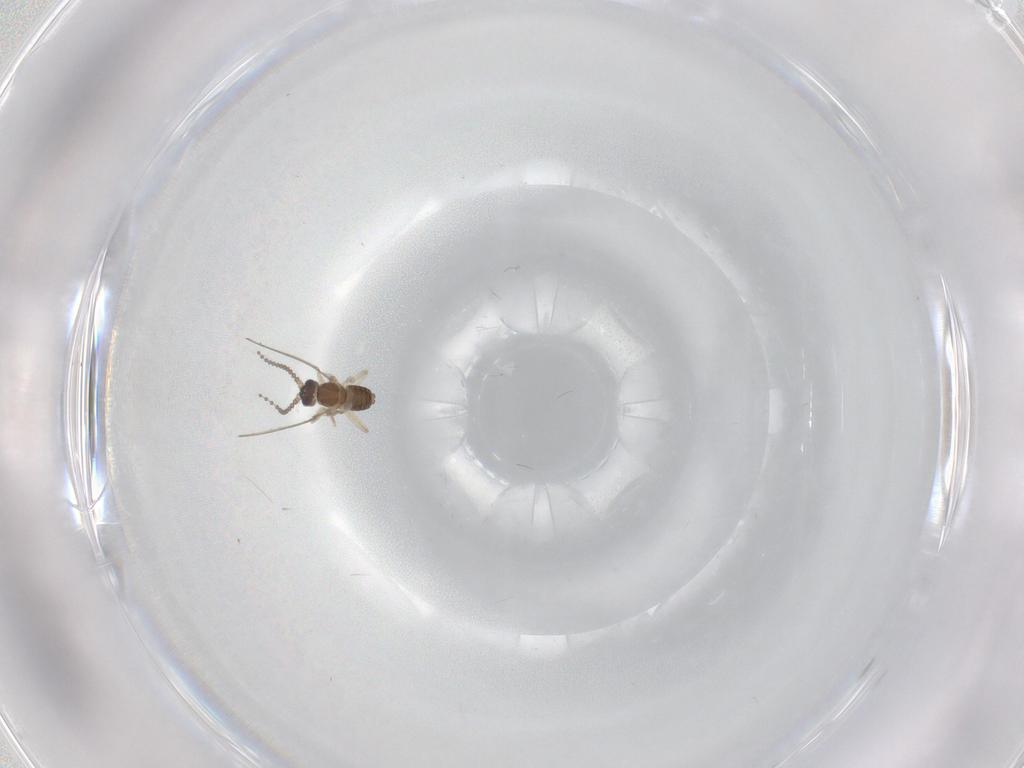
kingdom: Animalia
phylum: Arthropoda
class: Insecta
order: Diptera
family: Cecidomyiidae
